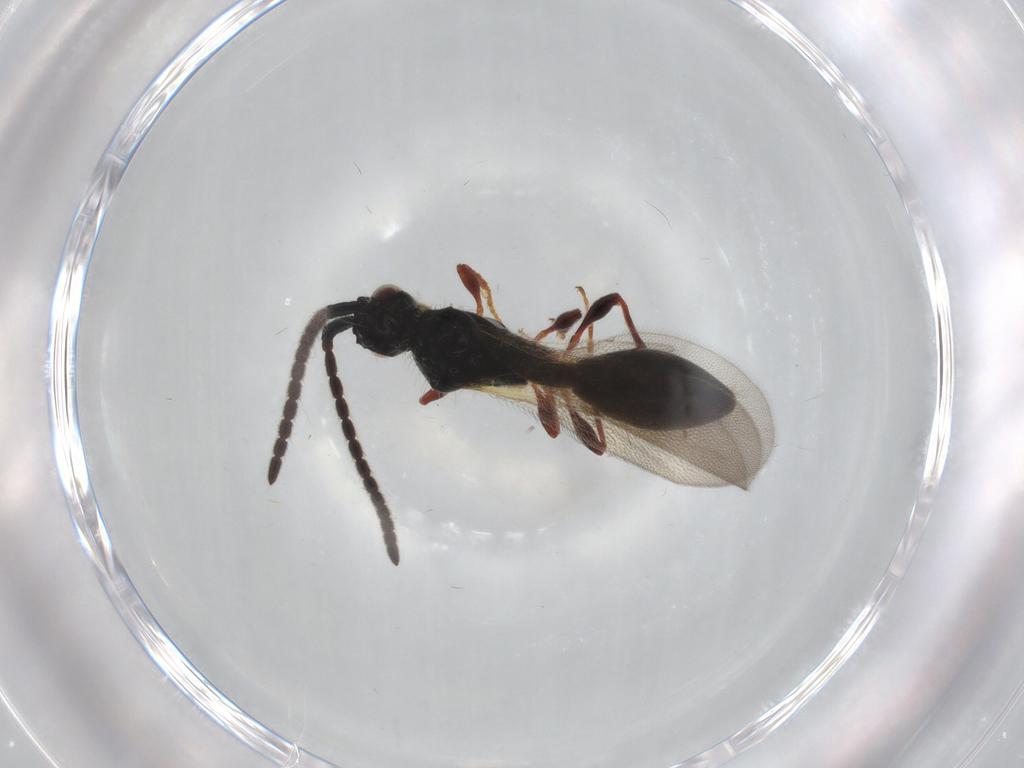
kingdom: Animalia
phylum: Arthropoda
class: Insecta
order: Hymenoptera
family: Diapriidae
